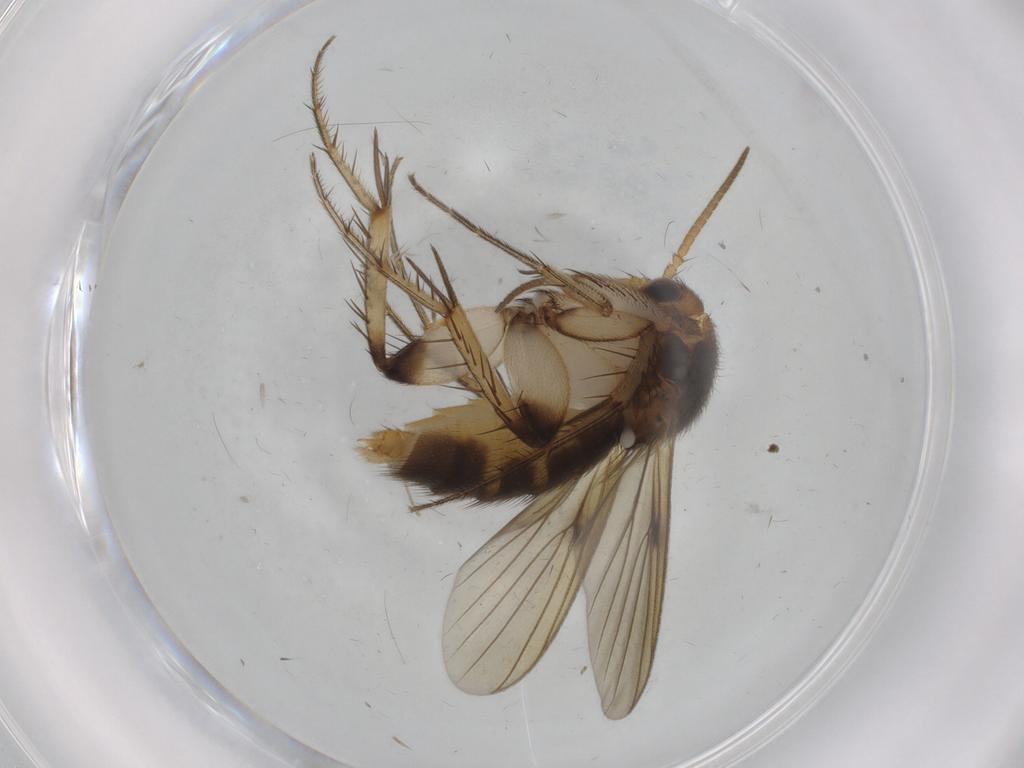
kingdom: Animalia
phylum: Arthropoda
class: Insecta
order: Diptera
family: Mycetophilidae
